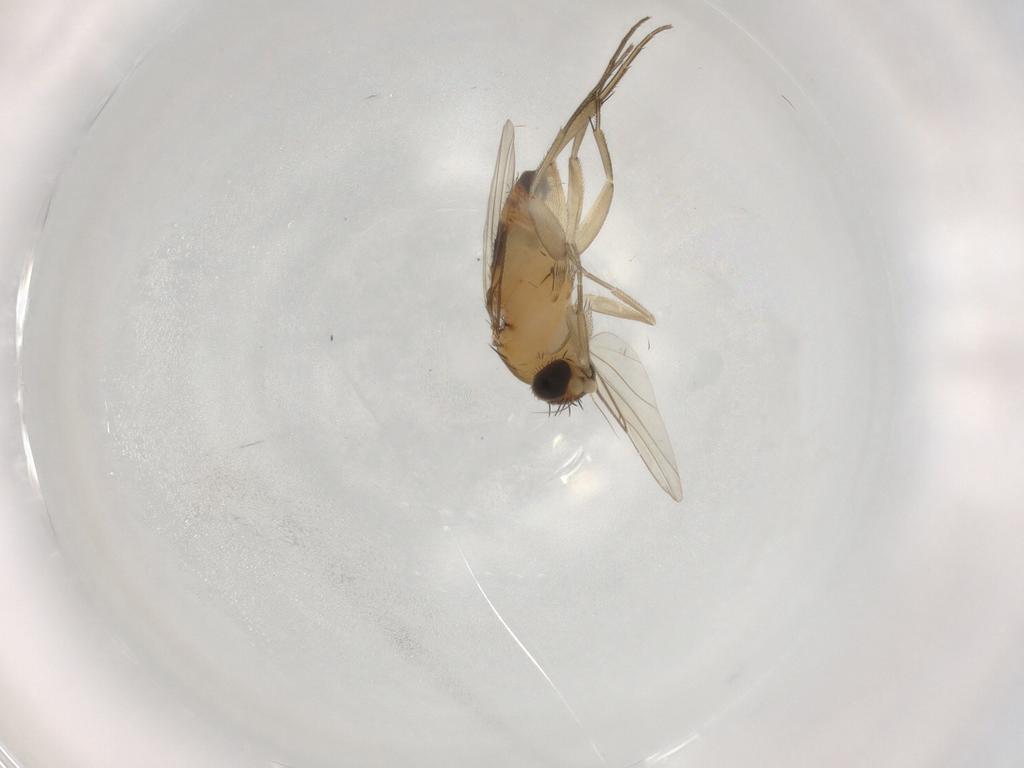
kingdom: Animalia
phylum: Arthropoda
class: Insecta
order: Diptera
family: Phoridae
